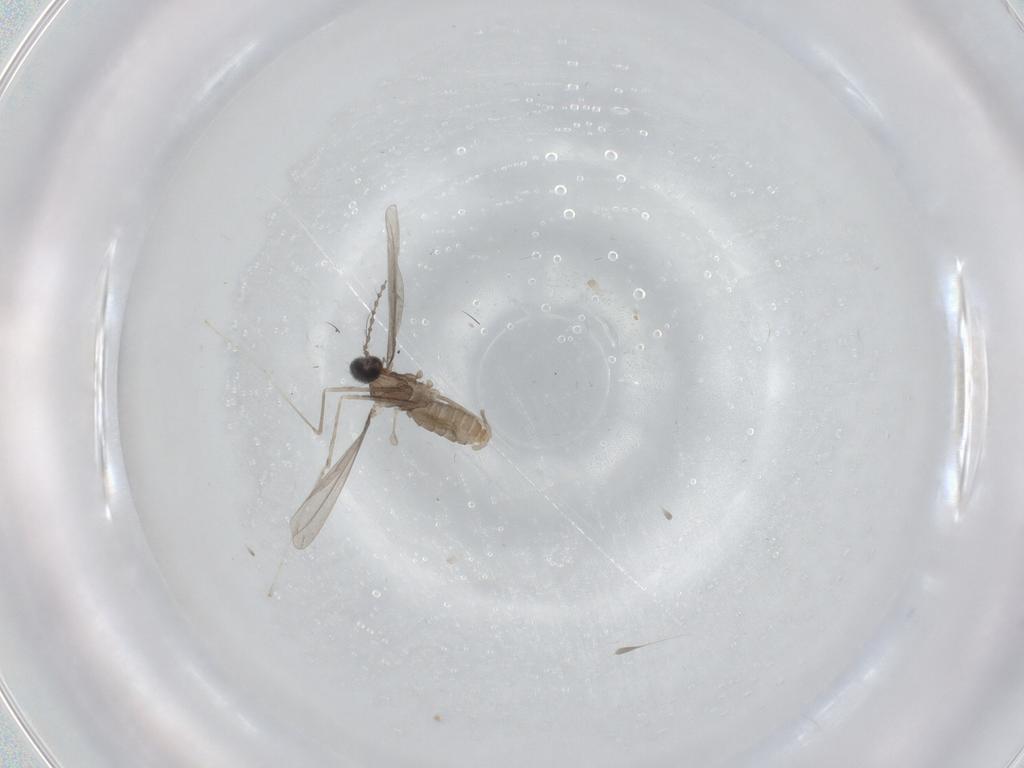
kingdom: Animalia
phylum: Arthropoda
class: Insecta
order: Diptera
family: Cecidomyiidae
